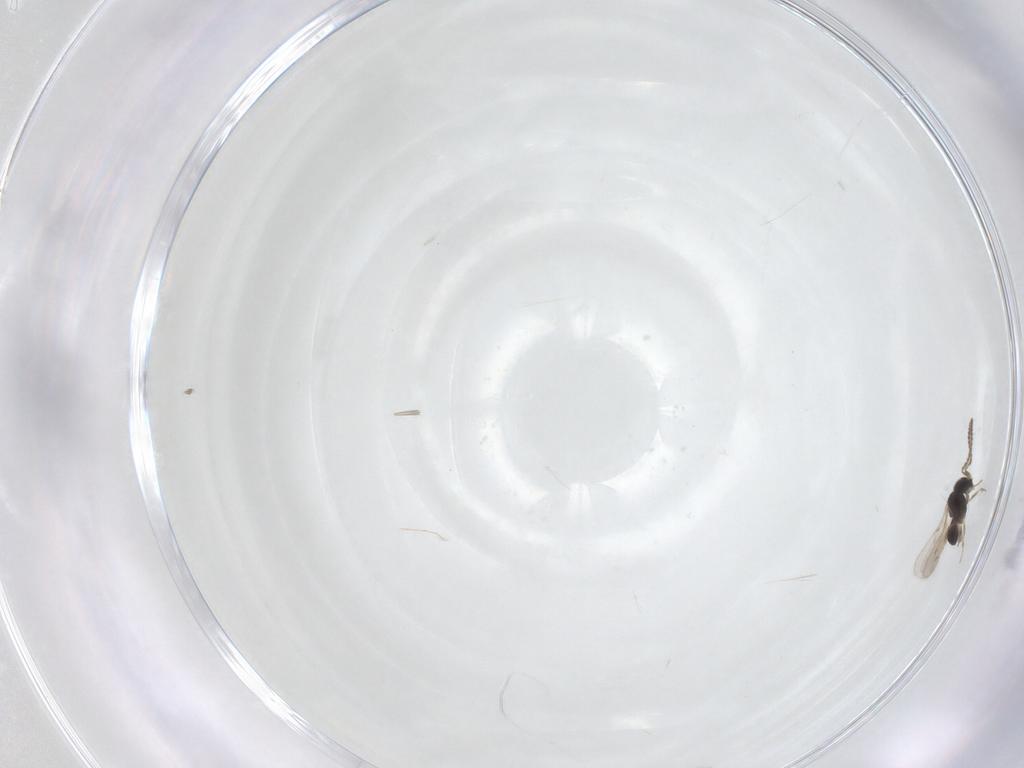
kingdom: Animalia
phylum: Arthropoda
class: Insecta
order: Hymenoptera
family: Scelionidae
